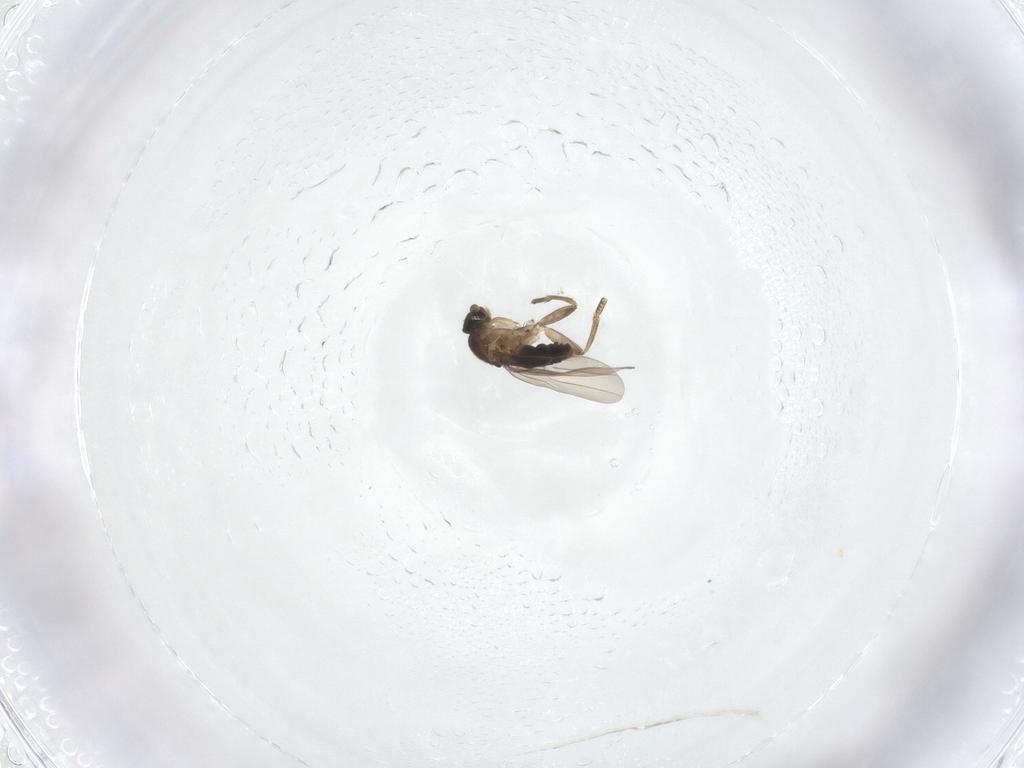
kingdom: Animalia
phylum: Arthropoda
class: Insecta
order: Diptera
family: Phoridae
